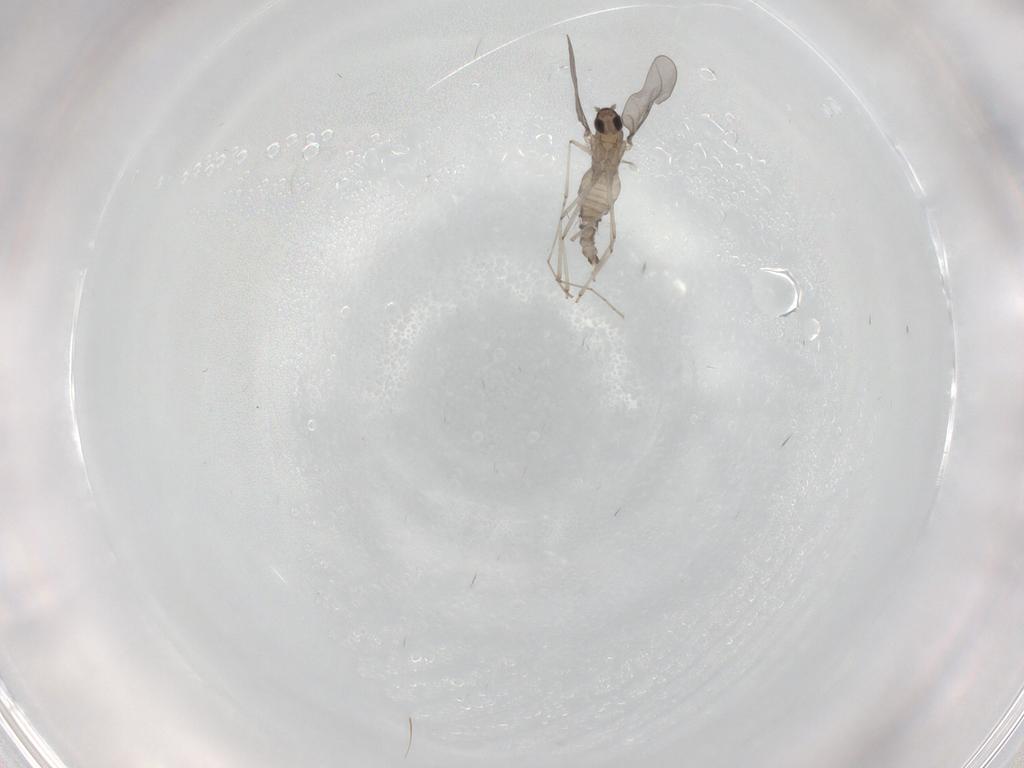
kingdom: Animalia
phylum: Arthropoda
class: Insecta
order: Diptera
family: Cecidomyiidae
